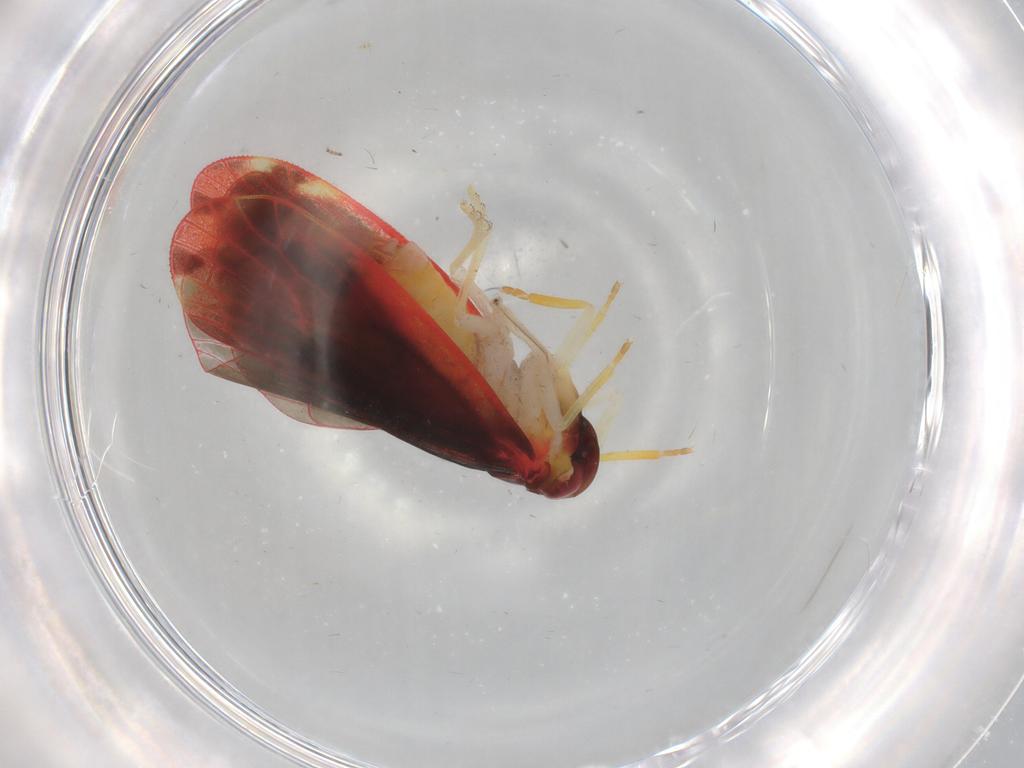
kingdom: Animalia
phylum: Arthropoda
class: Insecta
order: Hemiptera
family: Derbidae
